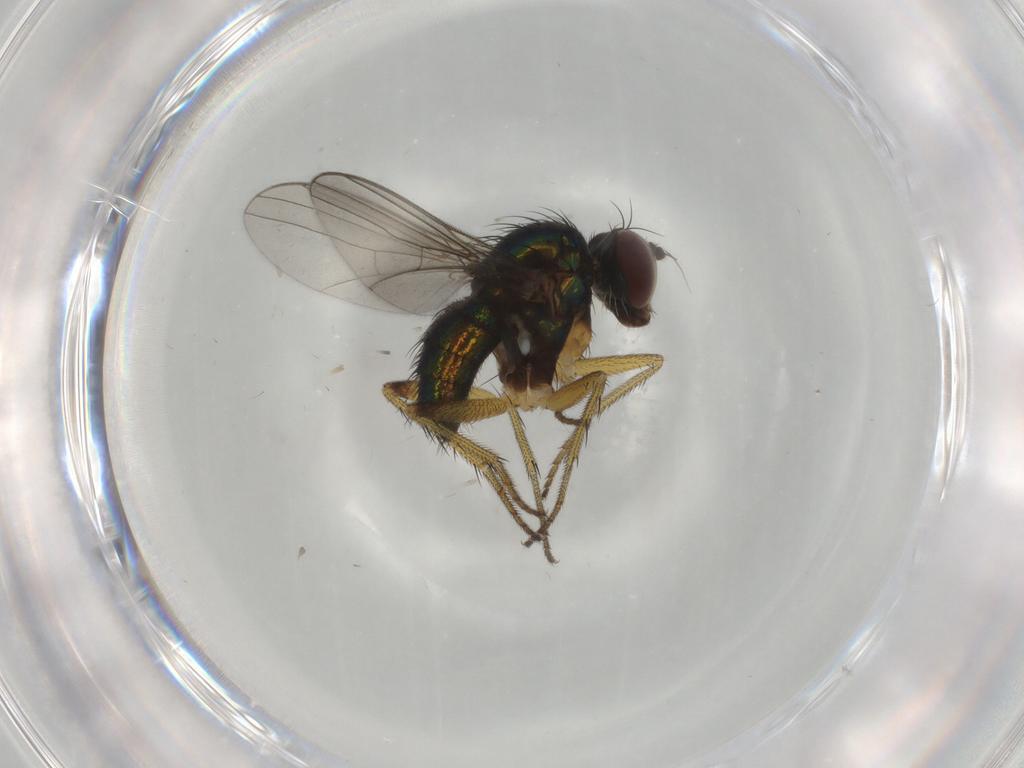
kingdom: Animalia
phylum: Arthropoda
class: Insecta
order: Diptera
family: Dolichopodidae
